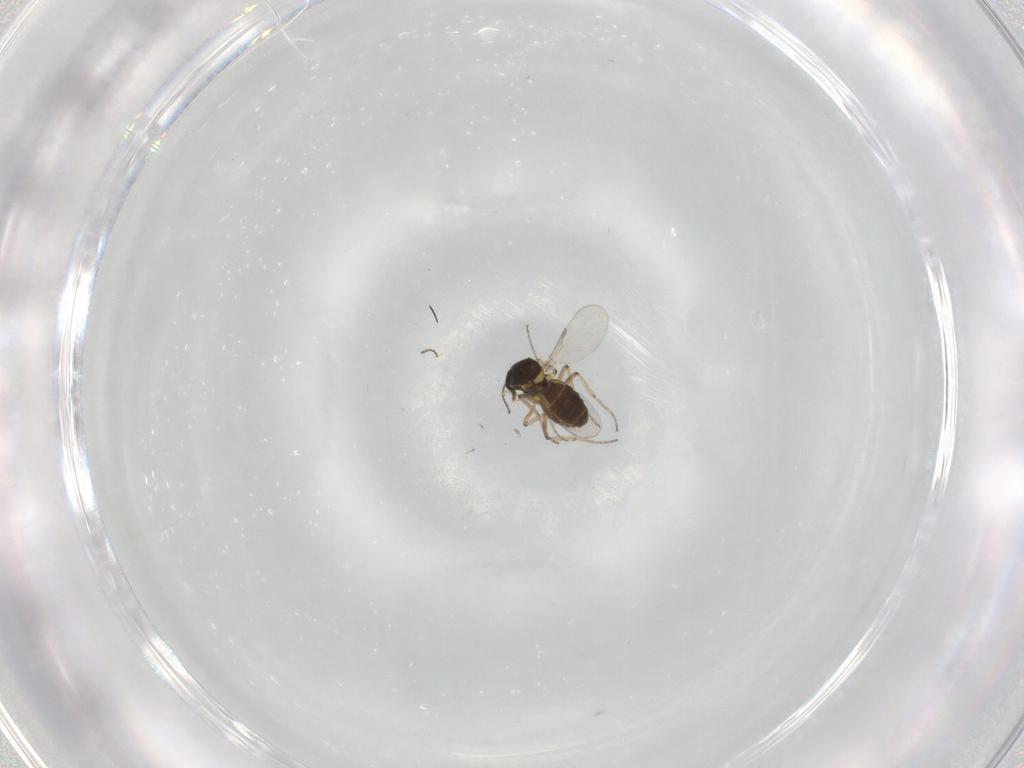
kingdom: Animalia
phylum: Arthropoda
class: Insecta
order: Diptera
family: Ceratopogonidae
